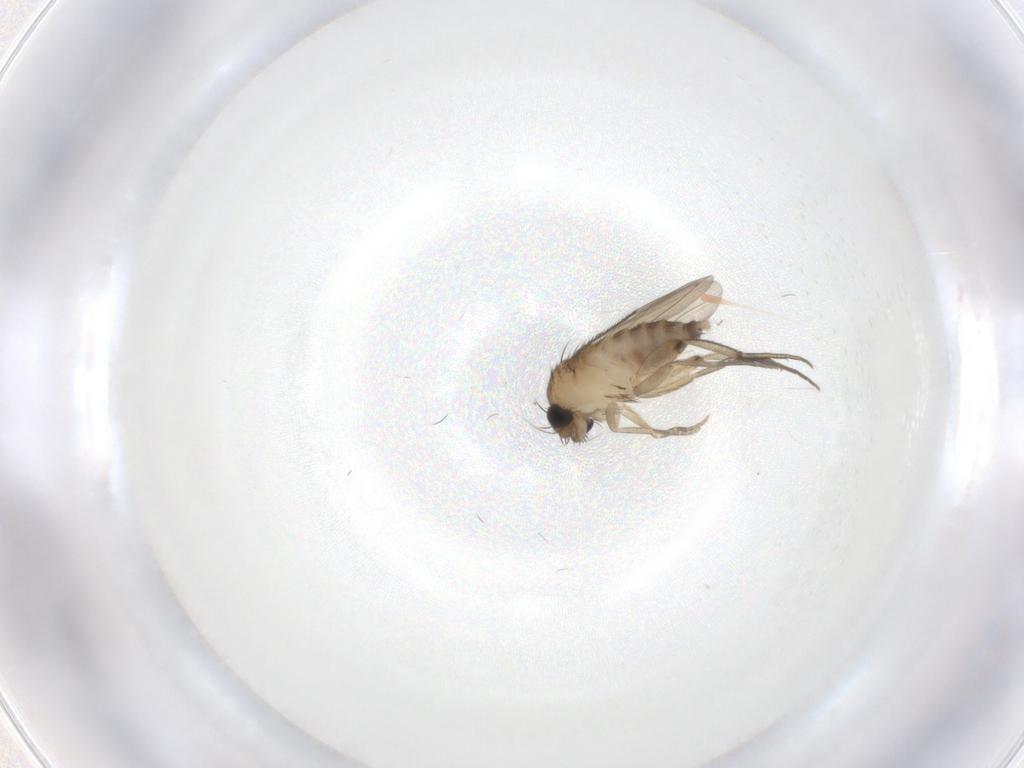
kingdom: Animalia
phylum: Arthropoda
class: Insecta
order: Diptera
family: Phoridae
